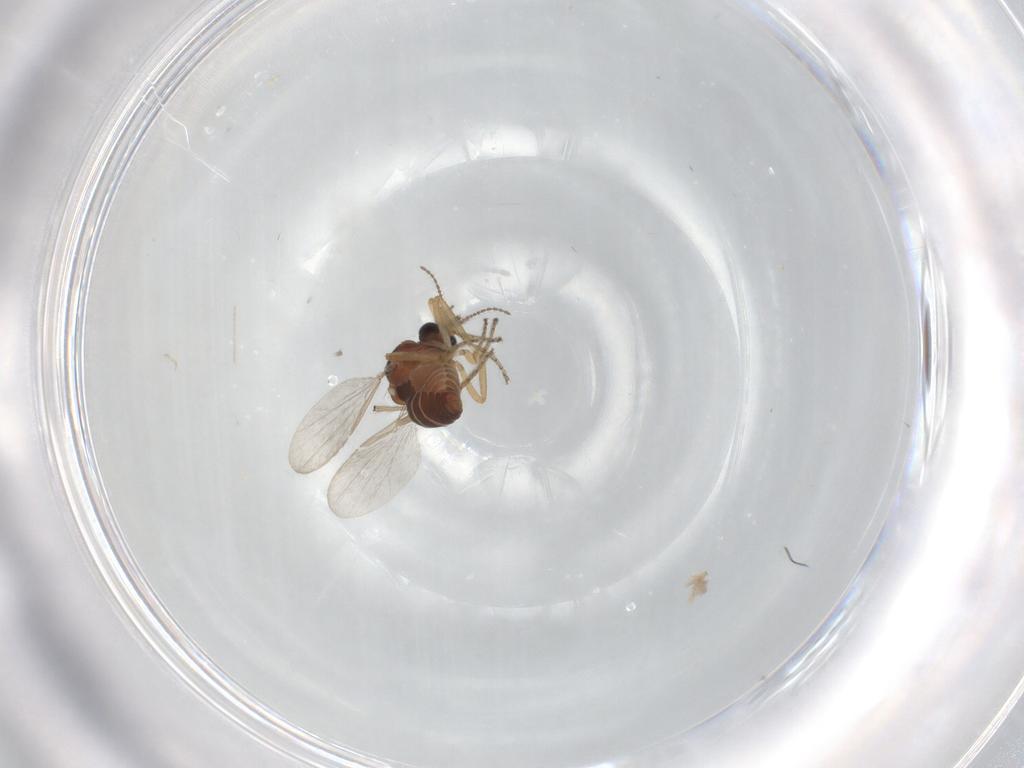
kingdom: Animalia
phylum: Arthropoda
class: Insecta
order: Diptera
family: Ceratopogonidae
